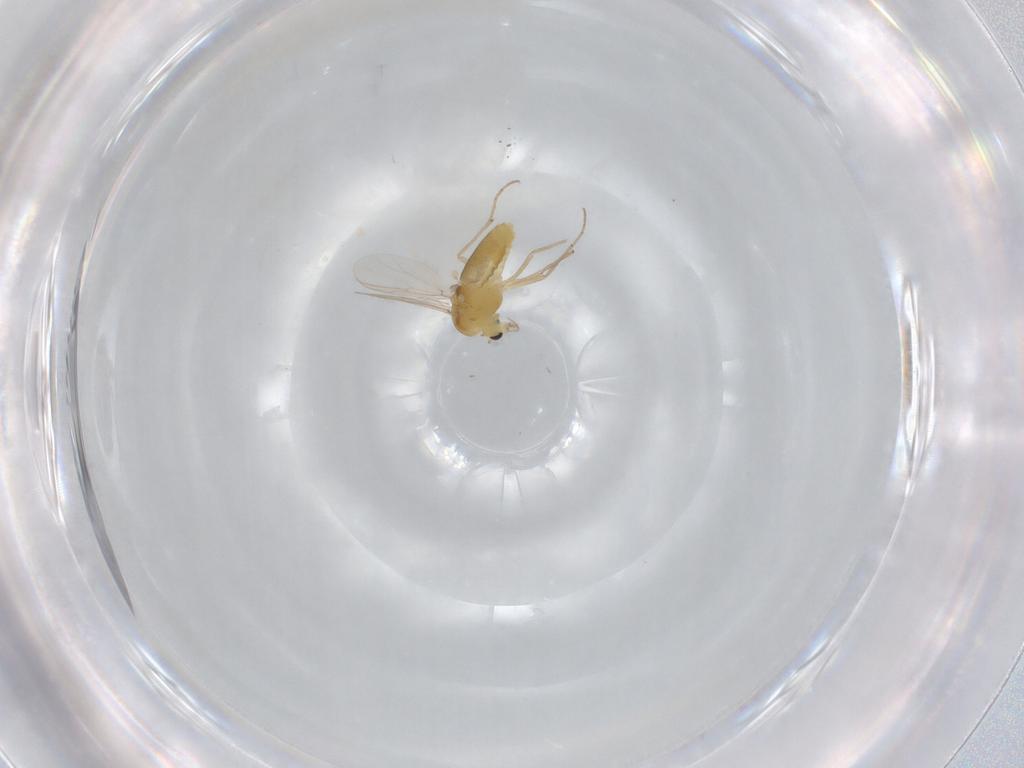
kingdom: Animalia
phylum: Arthropoda
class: Insecta
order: Diptera
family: Chironomidae
